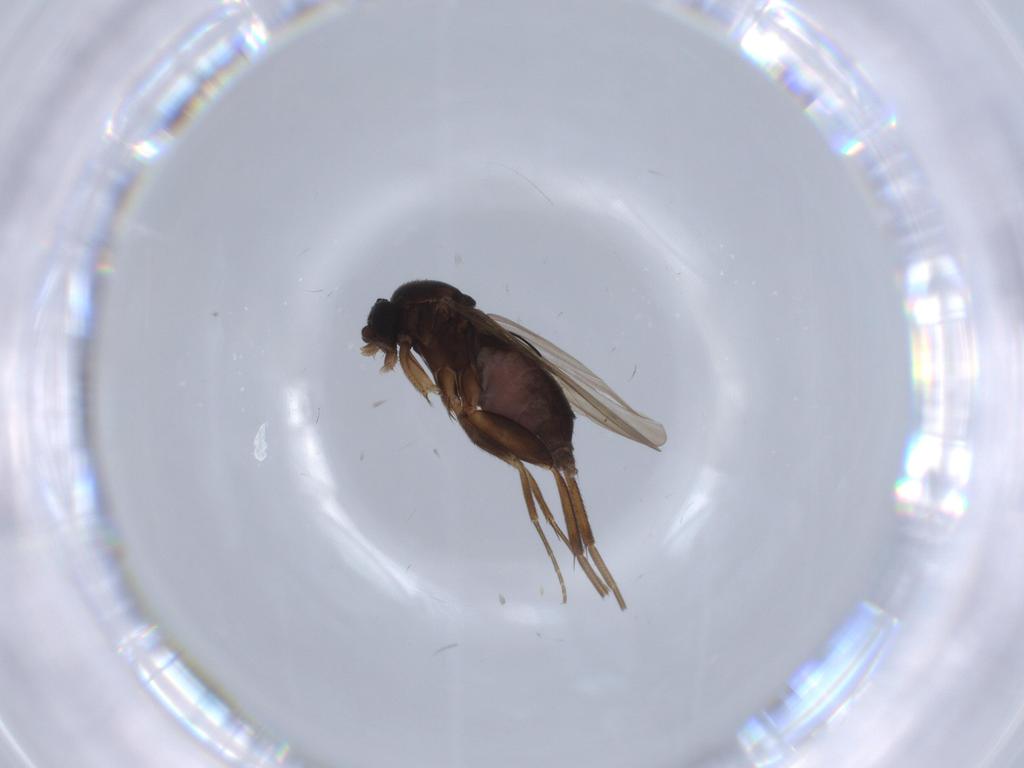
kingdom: Animalia
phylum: Arthropoda
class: Insecta
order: Diptera
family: Phoridae
